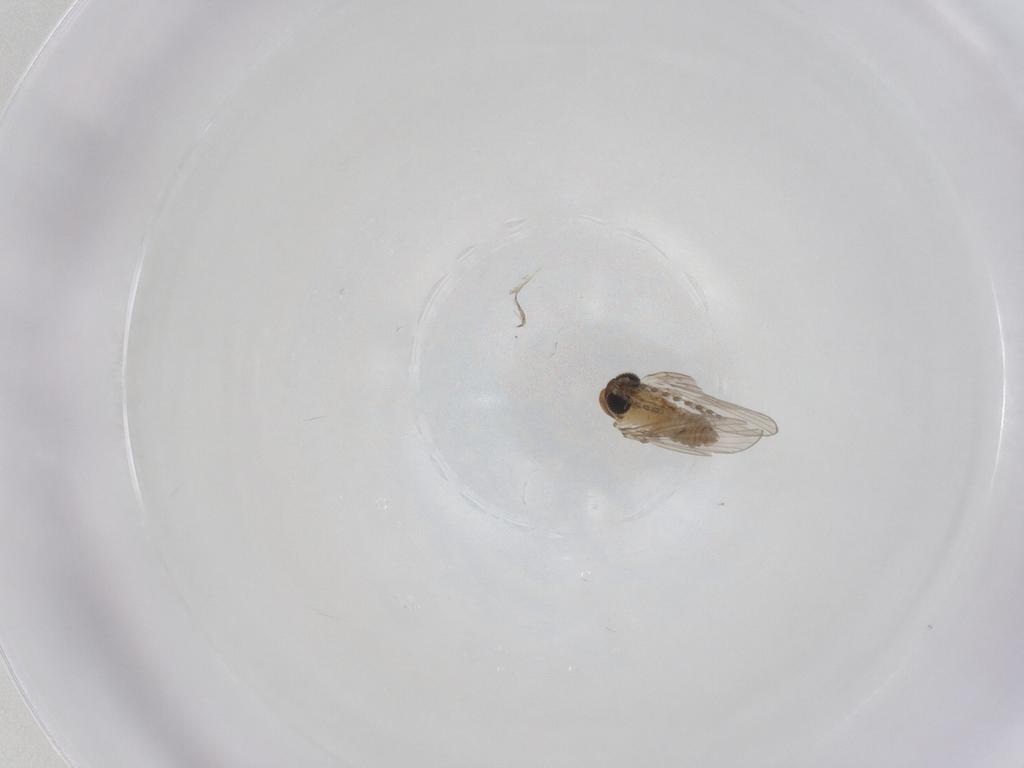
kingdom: Animalia
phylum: Arthropoda
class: Insecta
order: Diptera
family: Psychodidae
